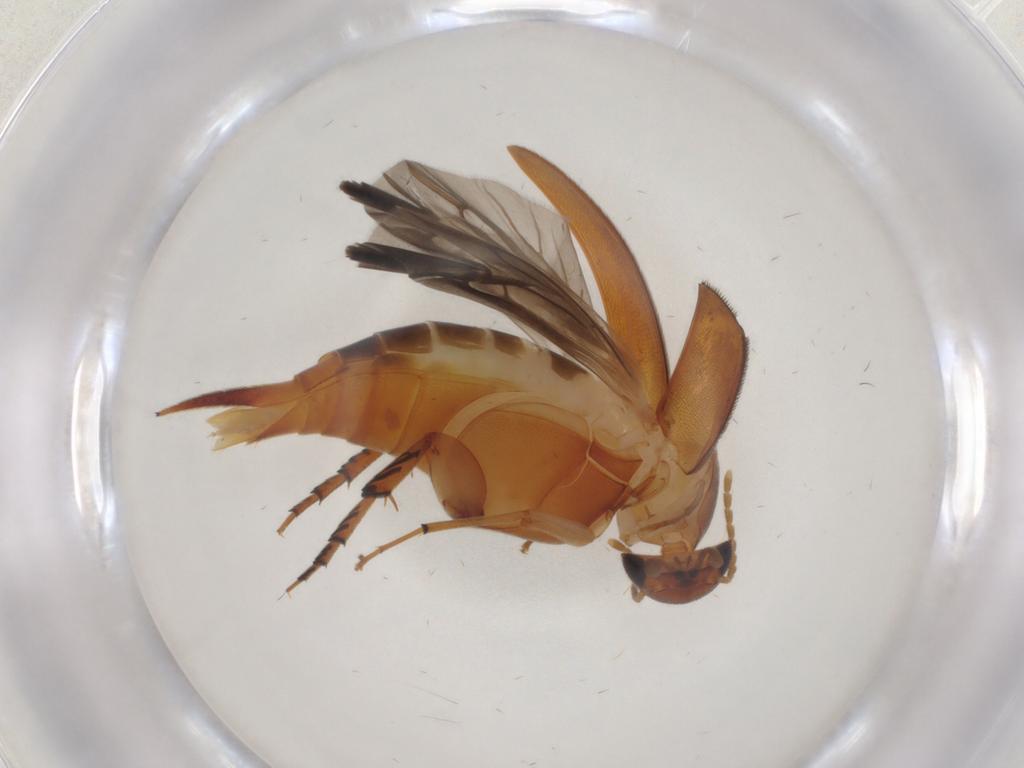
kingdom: Animalia
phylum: Arthropoda
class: Insecta
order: Coleoptera
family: Mordellidae
